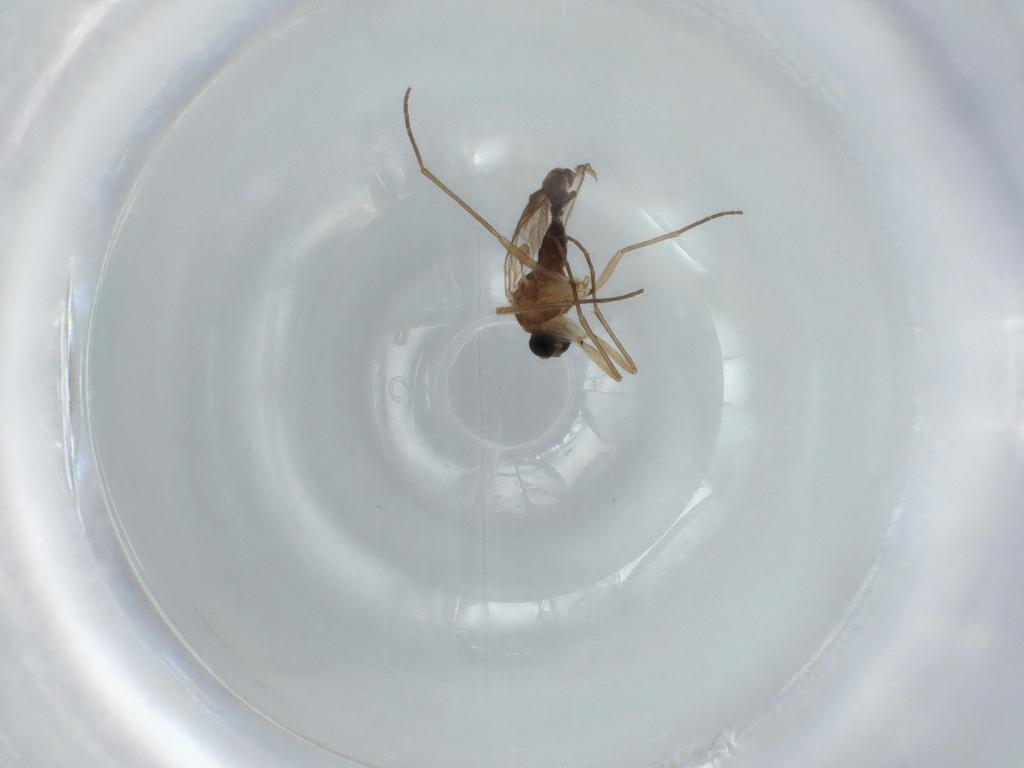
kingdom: Animalia
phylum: Arthropoda
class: Insecta
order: Diptera
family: Sciaridae
